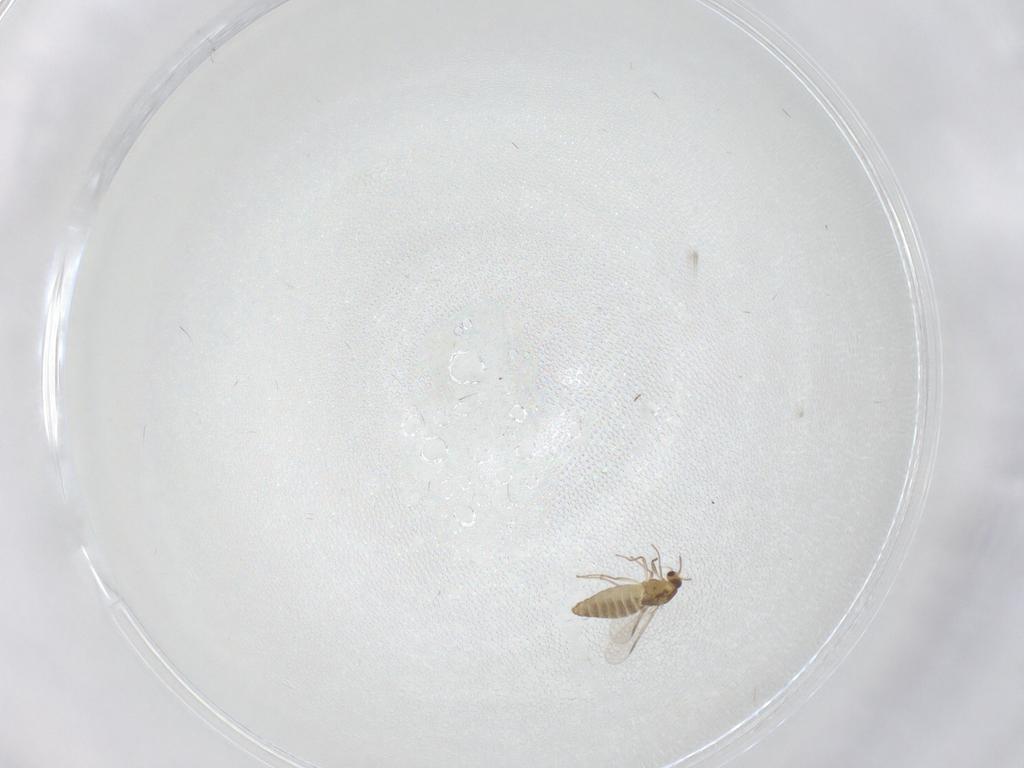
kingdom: Animalia
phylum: Arthropoda
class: Insecta
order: Diptera
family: Chironomidae
